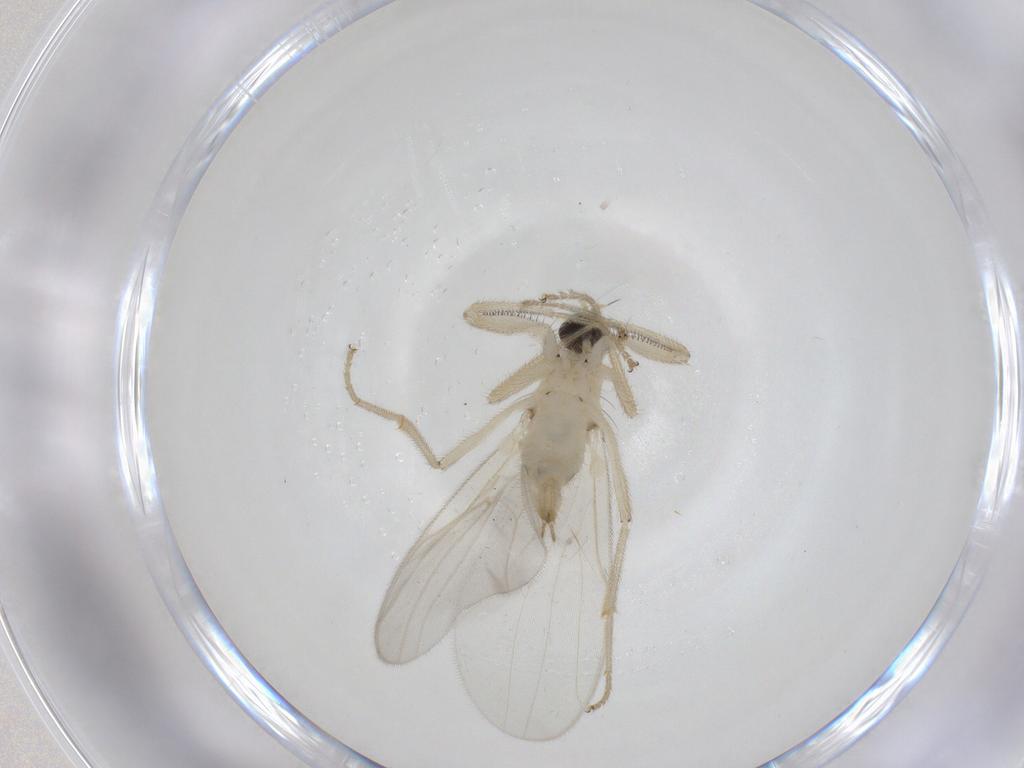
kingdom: Animalia
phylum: Arthropoda
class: Insecta
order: Diptera
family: Hybotidae
